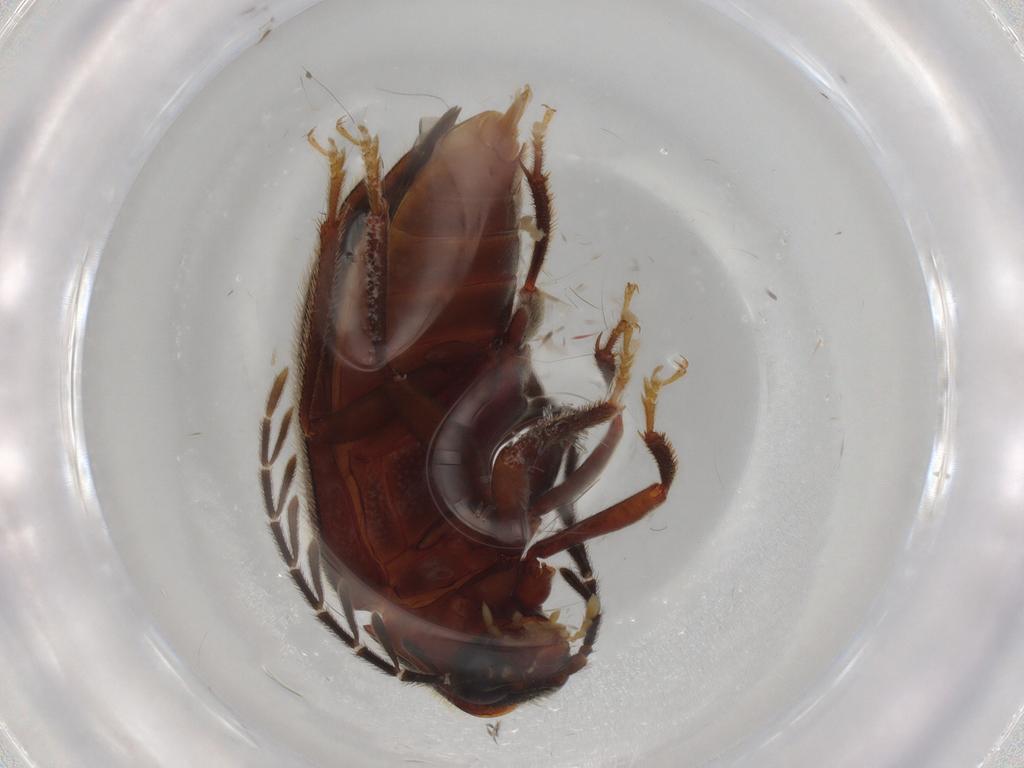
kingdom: Animalia
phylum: Arthropoda
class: Insecta
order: Coleoptera
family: Ptilodactylidae
